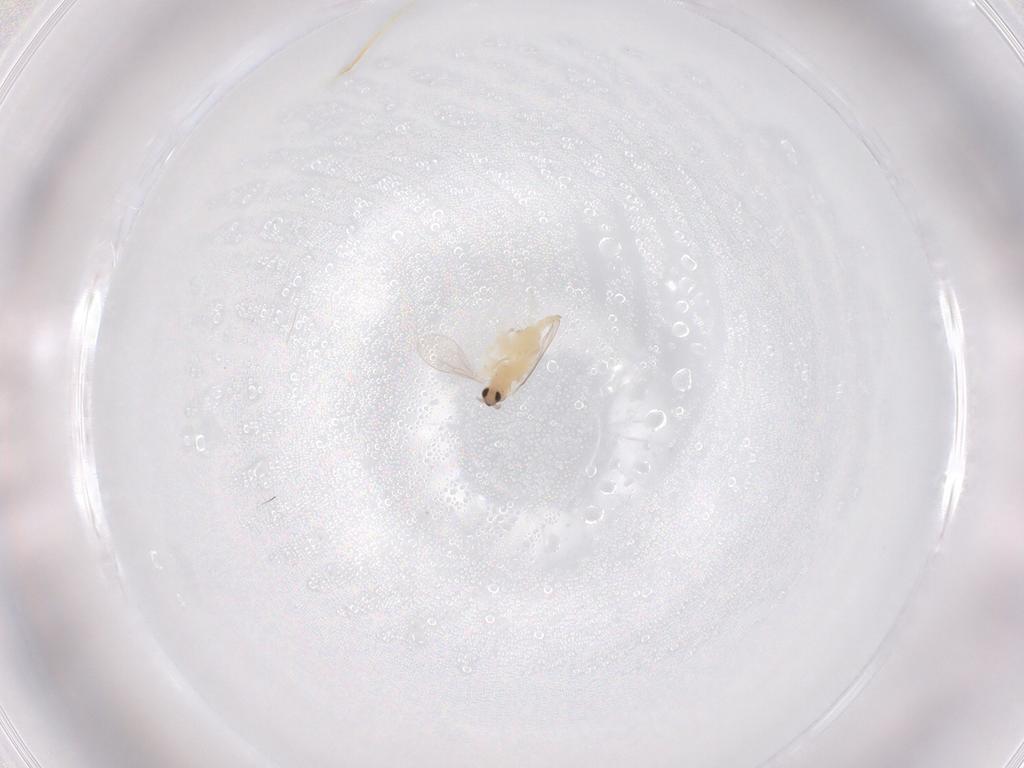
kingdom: Animalia
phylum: Arthropoda
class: Insecta
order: Diptera
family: Cecidomyiidae
